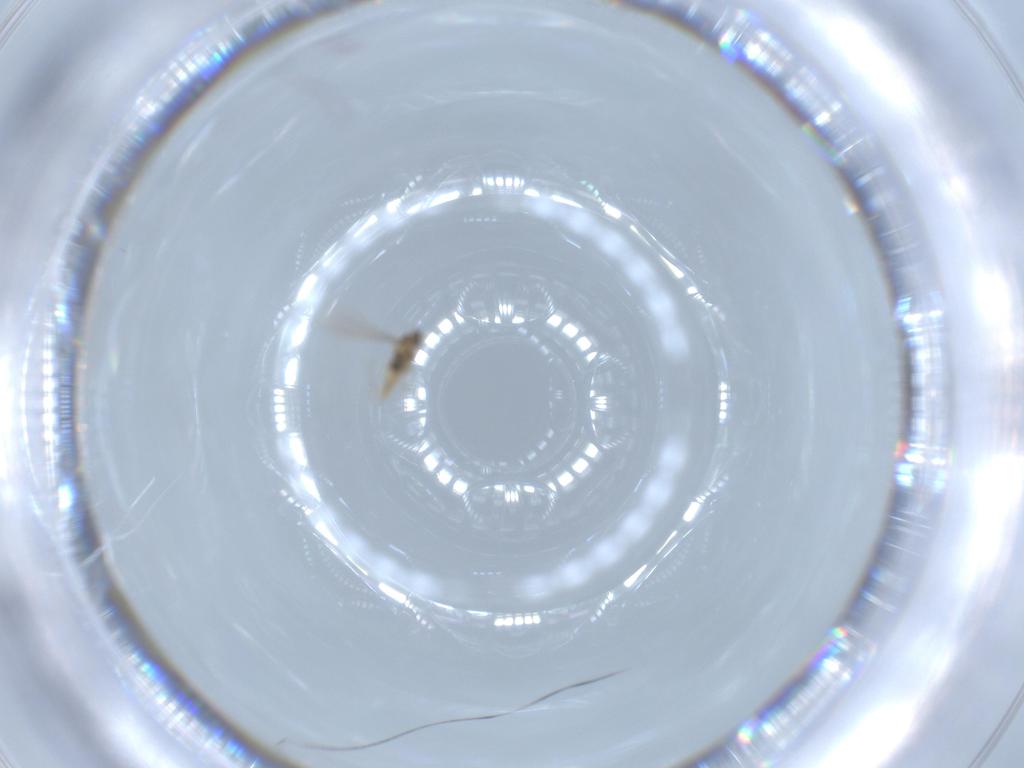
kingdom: Animalia
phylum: Arthropoda
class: Insecta
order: Diptera
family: Cecidomyiidae
